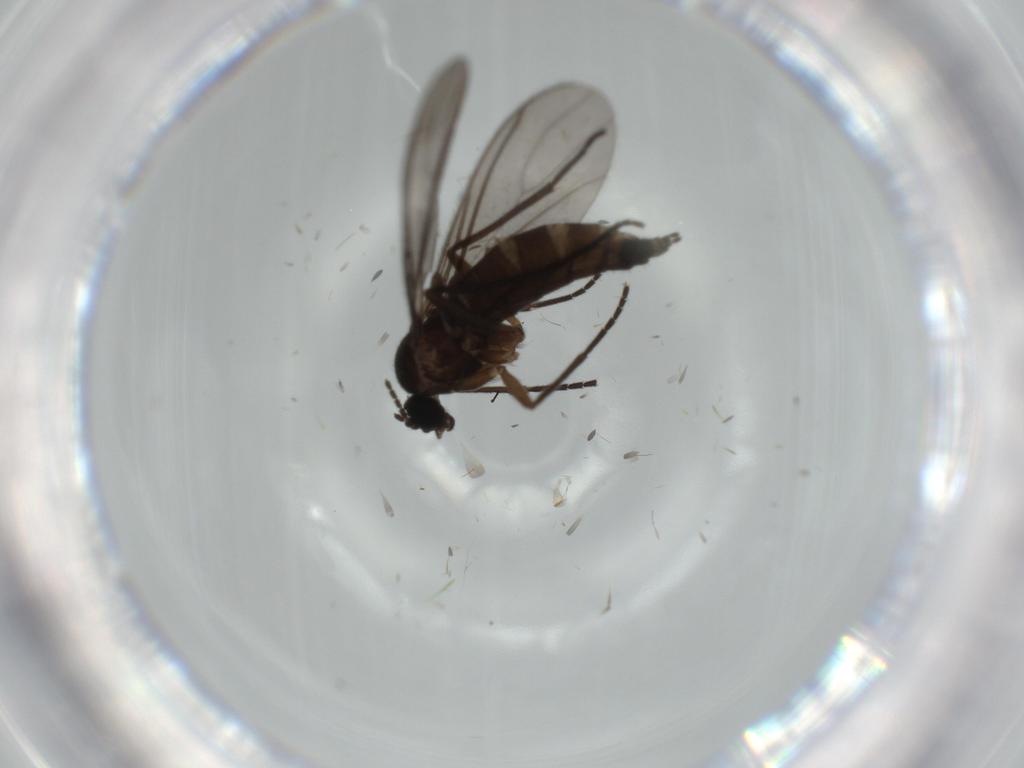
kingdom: Animalia
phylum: Arthropoda
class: Insecta
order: Diptera
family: Sciaridae
